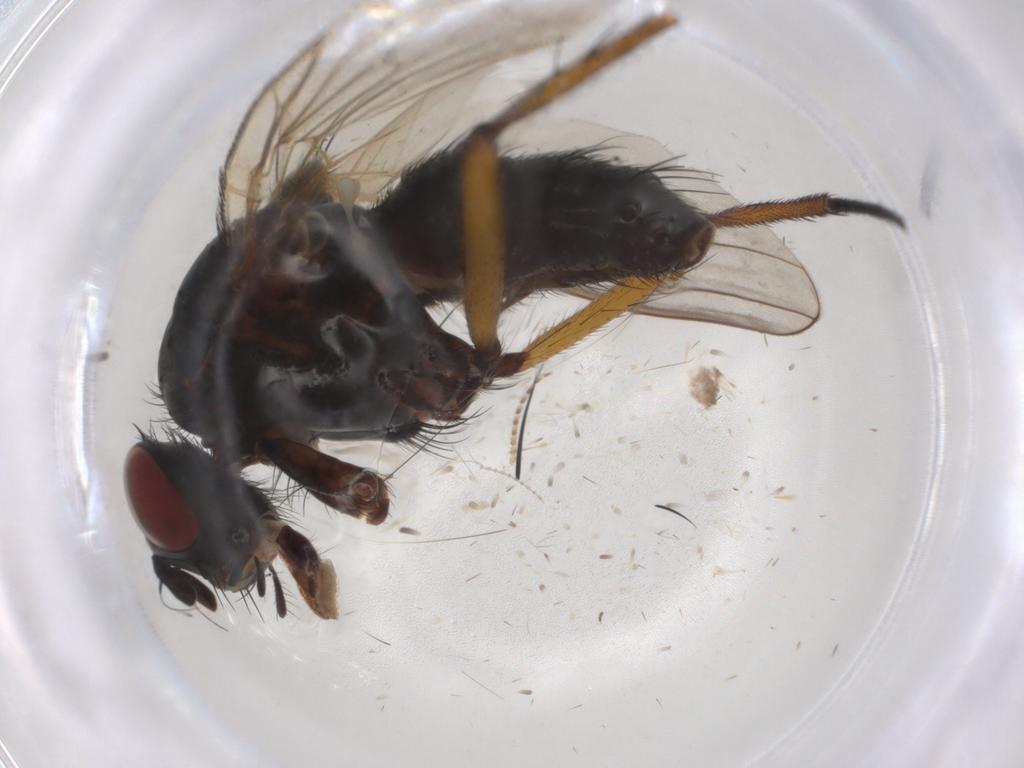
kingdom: Animalia
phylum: Arthropoda
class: Insecta
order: Diptera
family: Anthomyiidae
